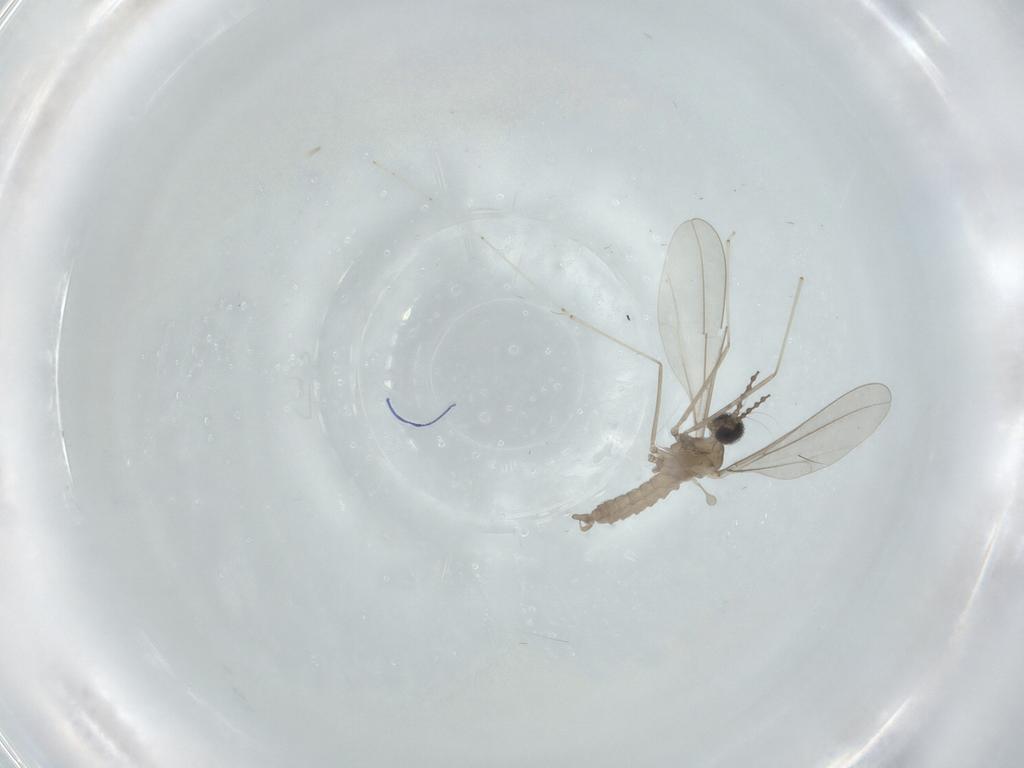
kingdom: Animalia
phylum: Arthropoda
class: Insecta
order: Diptera
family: Cecidomyiidae
